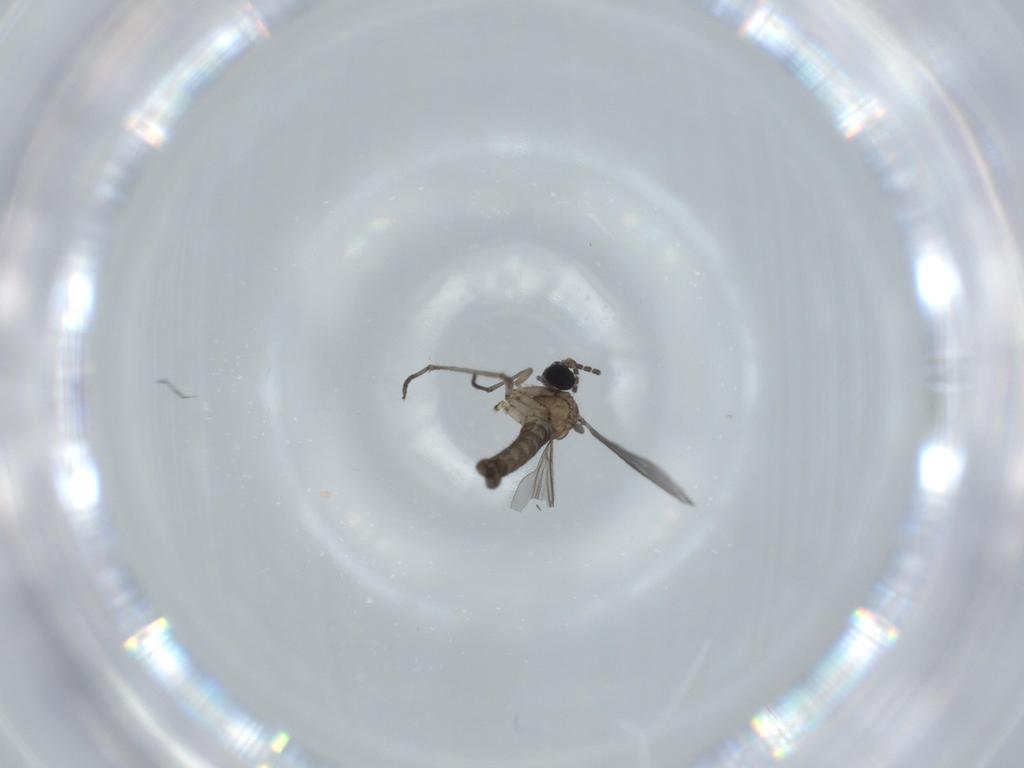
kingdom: Animalia
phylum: Arthropoda
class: Insecta
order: Diptera
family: Sciaridae
